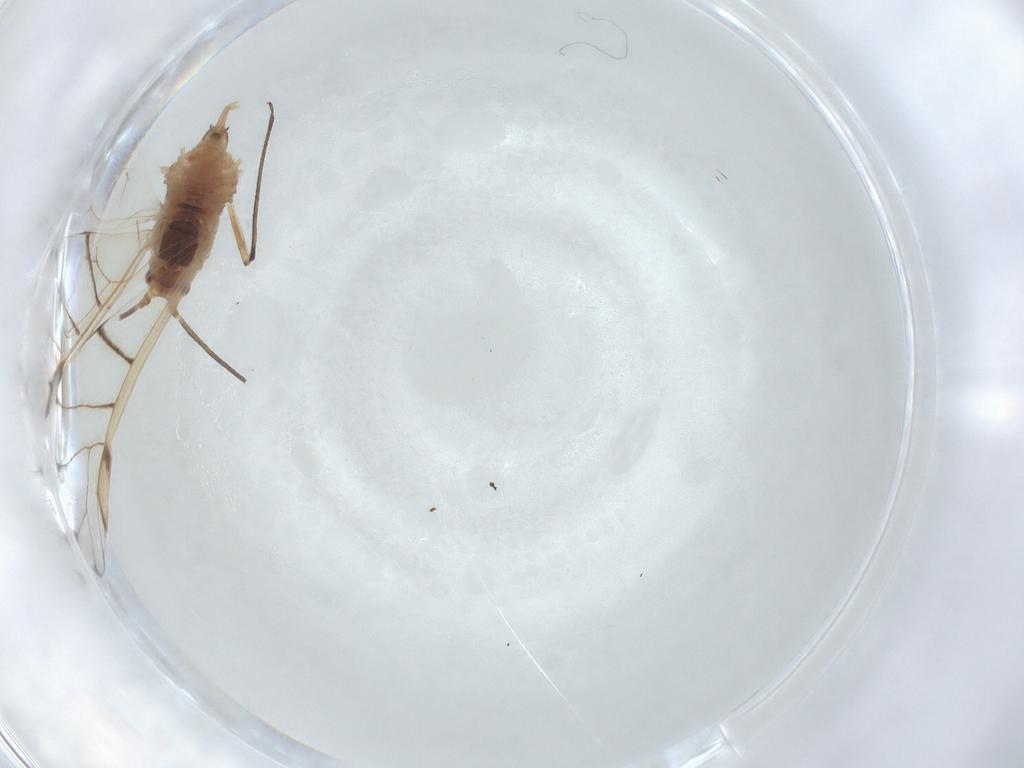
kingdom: Animalia
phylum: Arthropoda
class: Insecta
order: Hemiptera
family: Aphididae
